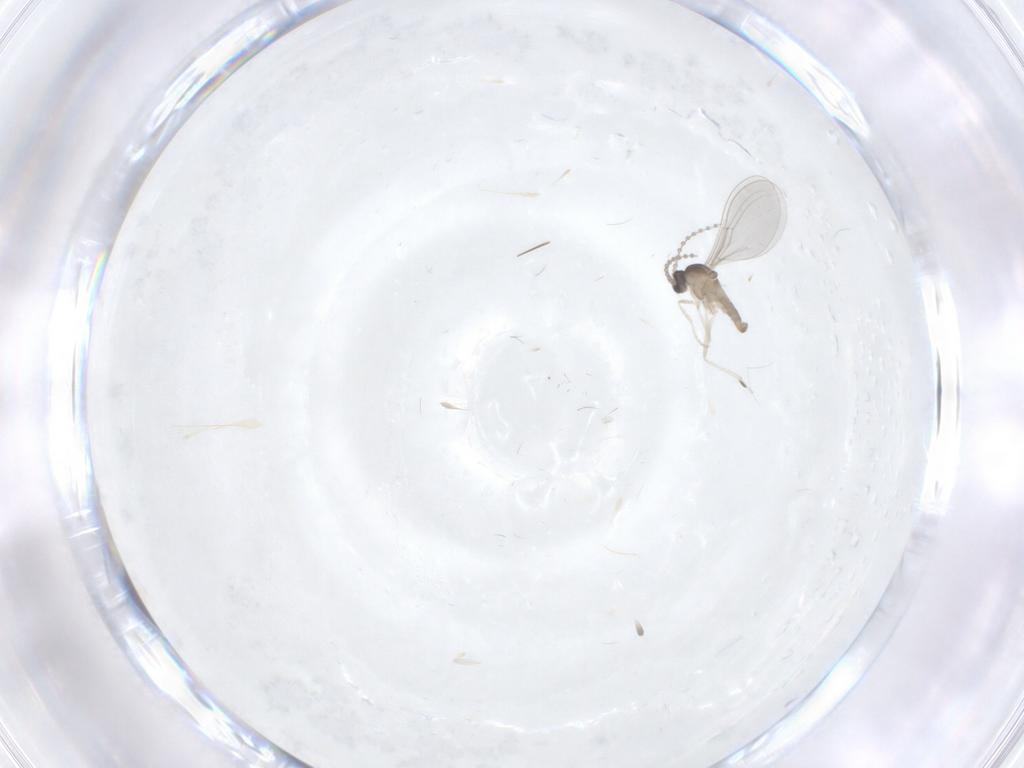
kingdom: Animalia
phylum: Arthropoda
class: Insecta
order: Diptera
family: Cecidomyiidae
